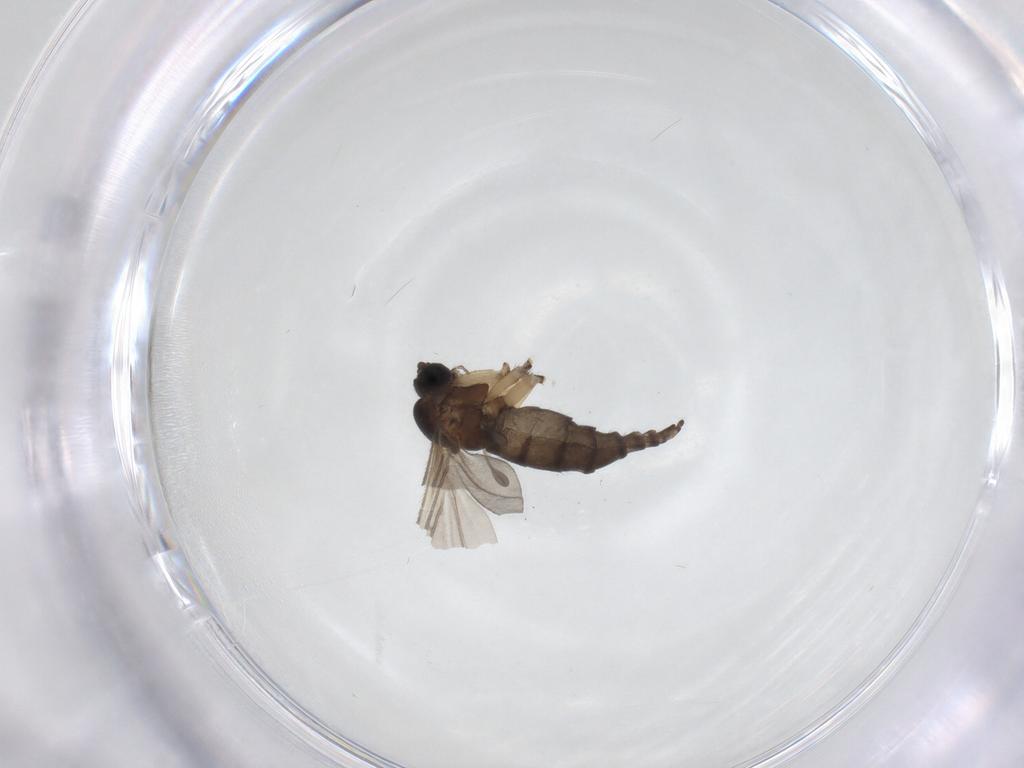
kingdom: Animalia
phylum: Arthropoda
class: Insecta
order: Diptera
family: Sciaridae
